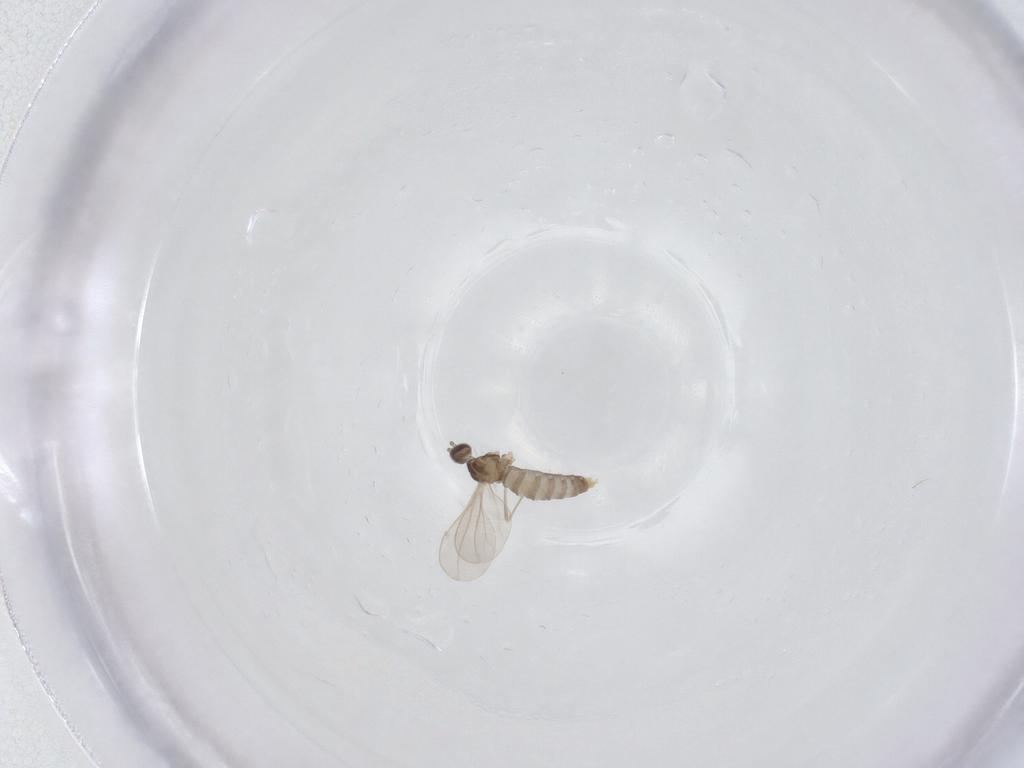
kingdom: Animalia
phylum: Arthropoda
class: Insecta
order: Diptera
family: Cecidomyiidae
